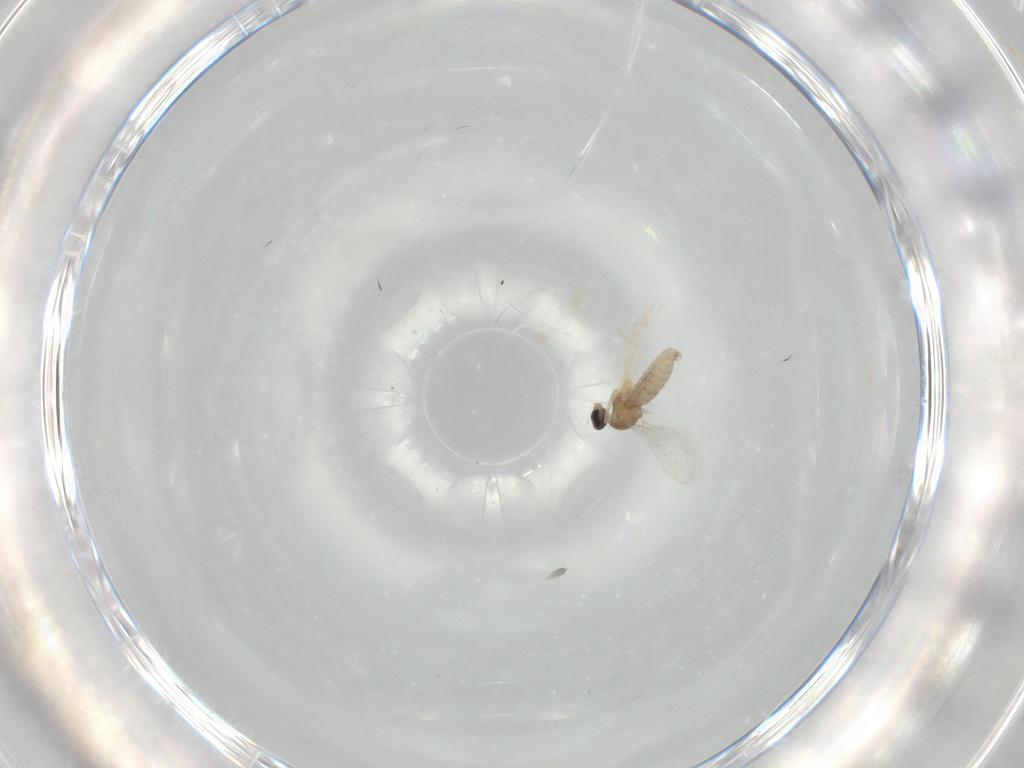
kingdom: Animalia
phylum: Arthropoda
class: Insecta
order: Diptera
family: Cecidomyiidae
